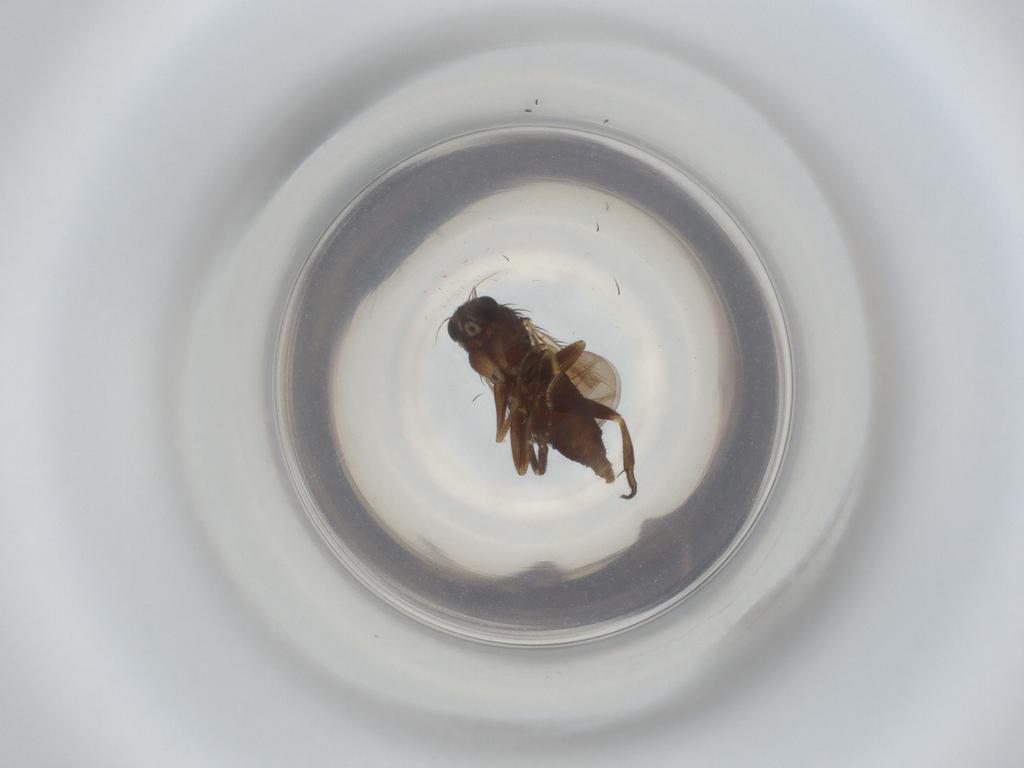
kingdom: Animalia
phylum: Arthropoda
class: Insecta
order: Diptera
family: Phoridae
